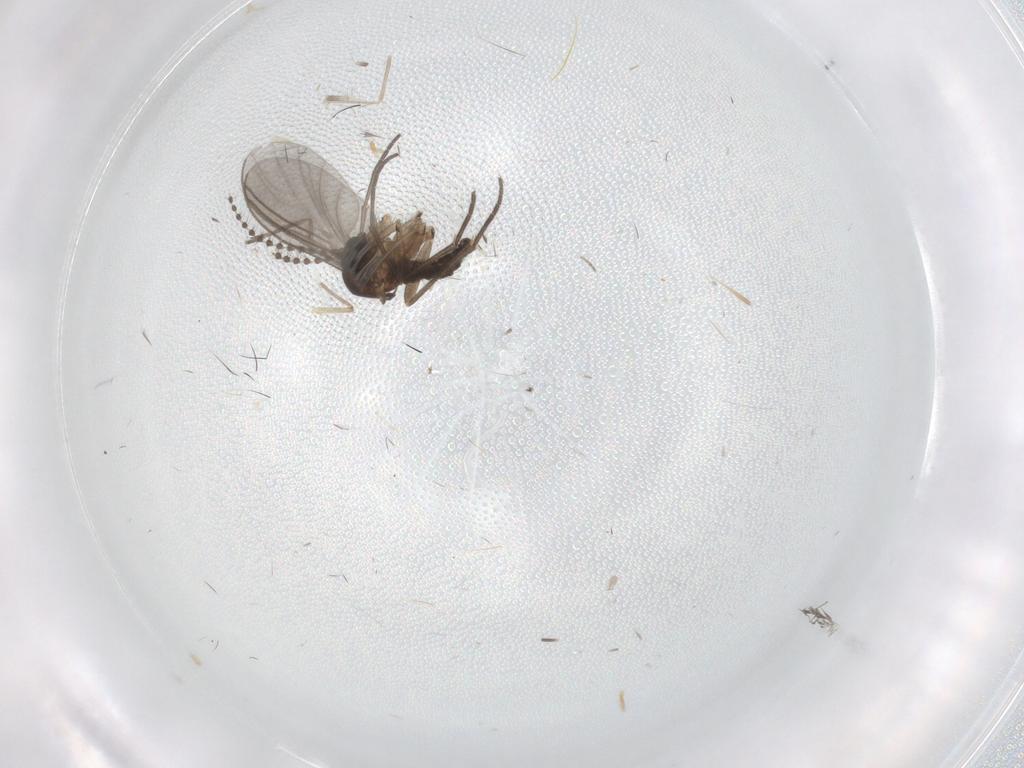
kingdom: Animalia
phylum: Arthropoda
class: Insecta
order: Diptera
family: Sciaridae
